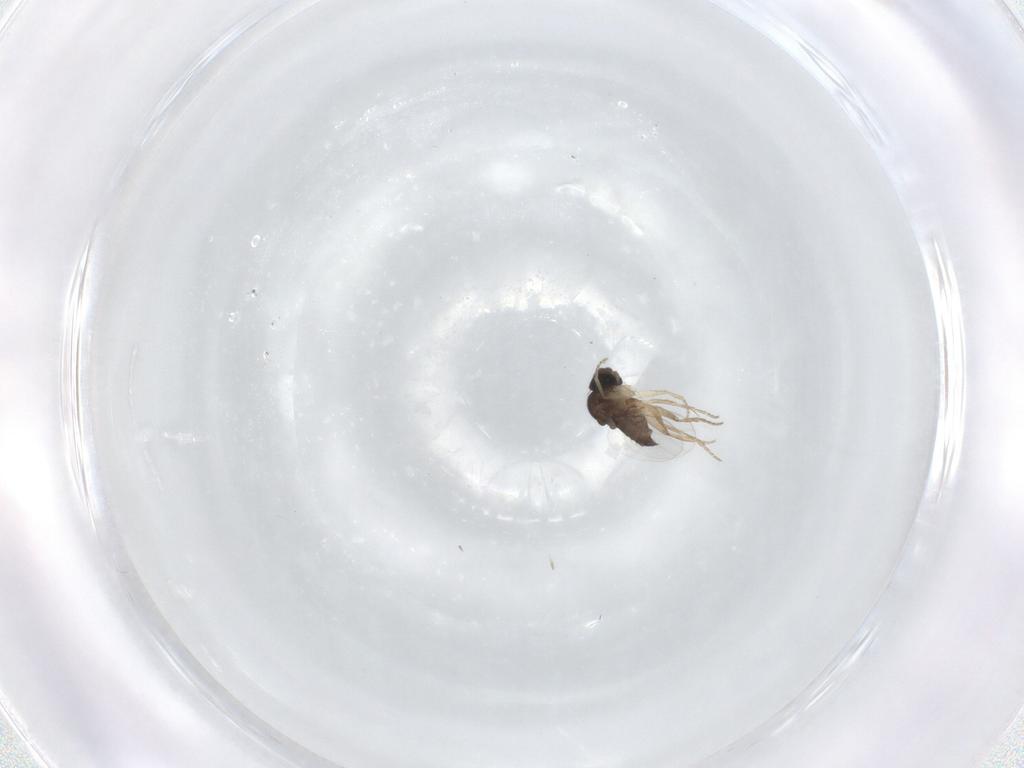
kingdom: Animalia
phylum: Arthropoda
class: Insecta
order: Diptera
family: Phoridae
